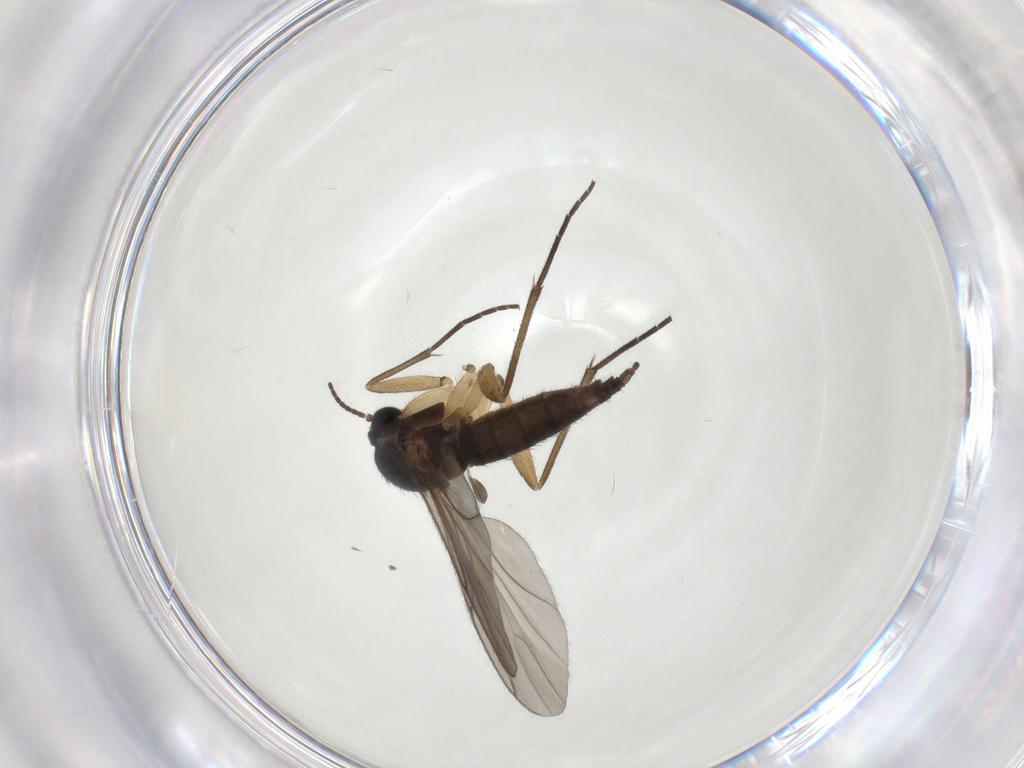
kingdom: Animalia
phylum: Arthropoda
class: Insecta
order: Diptera
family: Sciaridae
